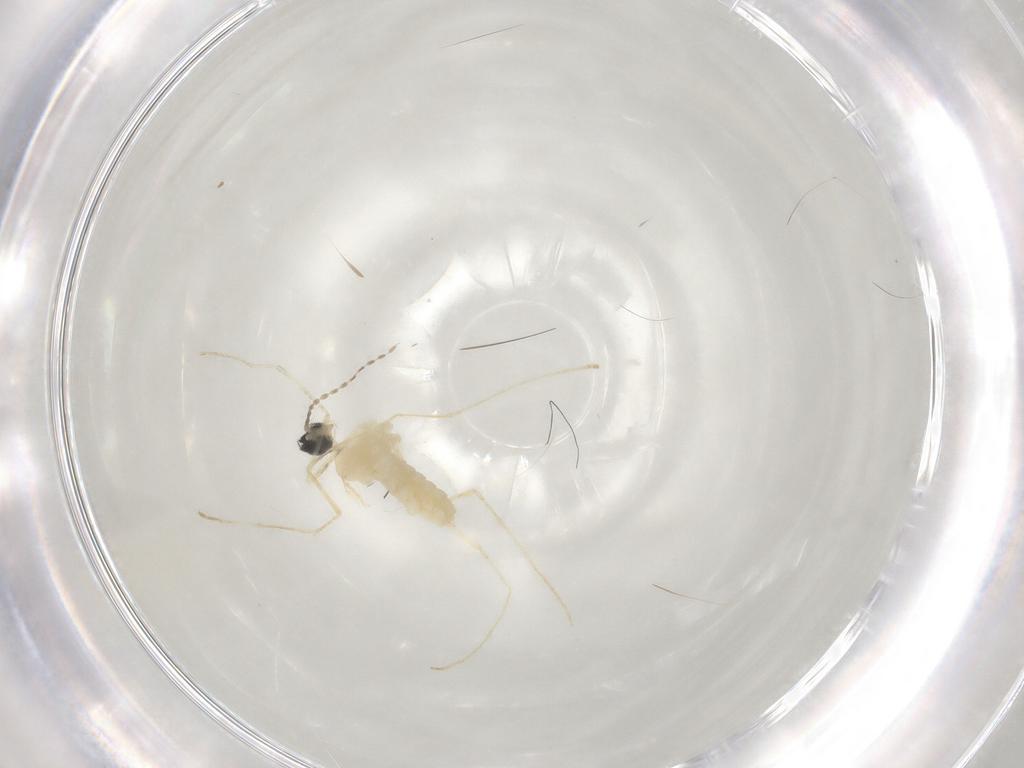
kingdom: Animalia
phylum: Arthropoda
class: Insecta
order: Diptera
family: Cecidomyiidae
